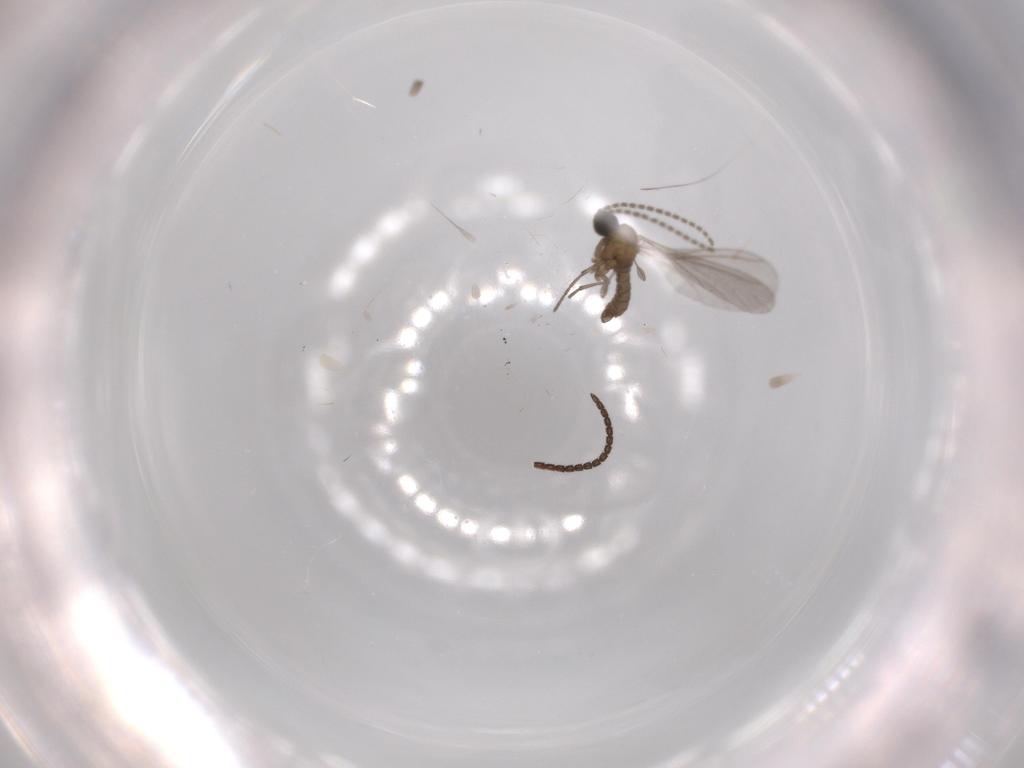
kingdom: Animalia
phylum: Arthropoda
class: Insecta
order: Diptera
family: Sciaridae
